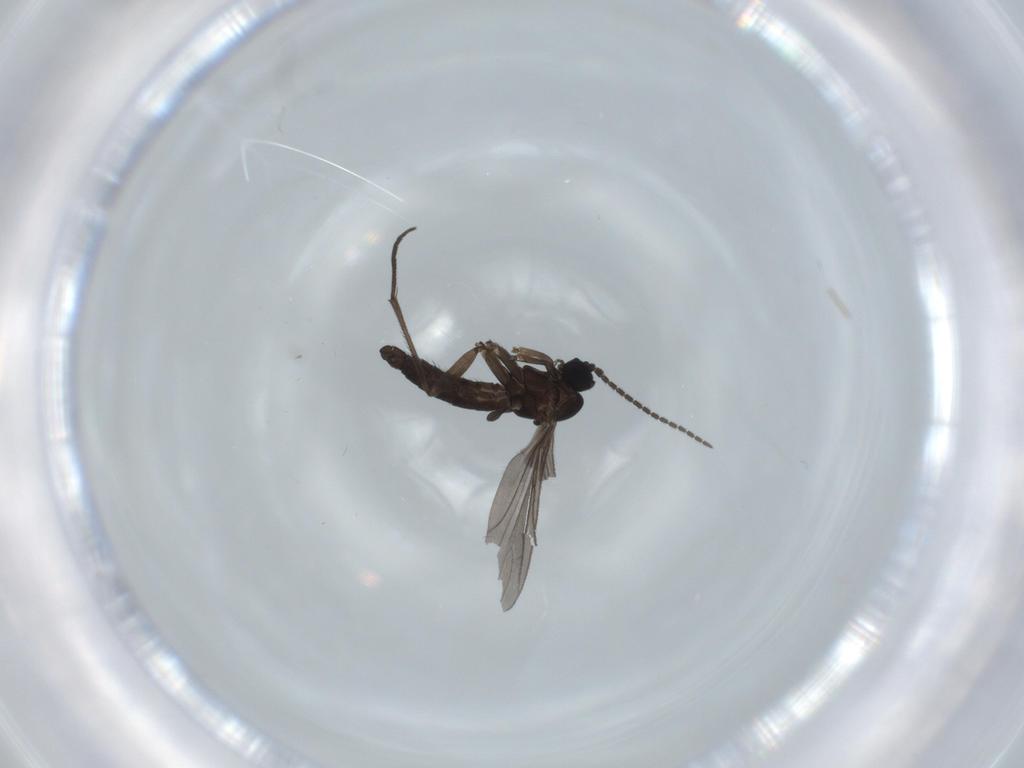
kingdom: Animalia
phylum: Arthropoda
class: Insecta
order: Diptera
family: Sciaridae
